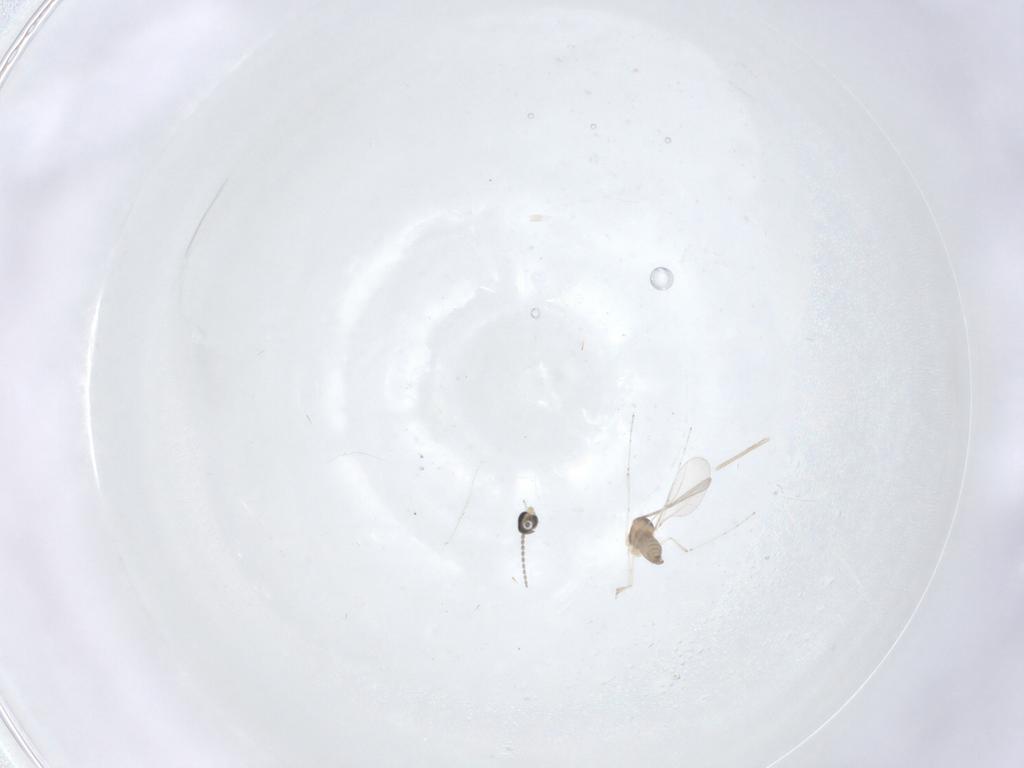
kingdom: Animalia
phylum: Arthropoda
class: Insecta
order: Diptera
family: Cecidomyiidae
